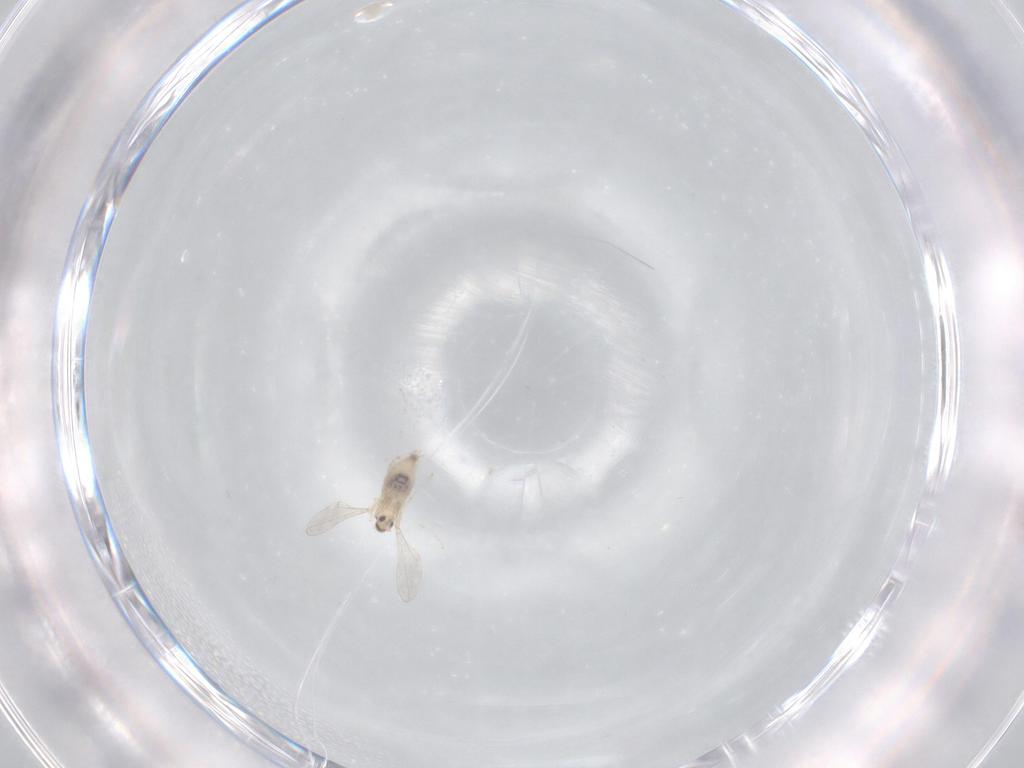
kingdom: Animalia
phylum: Arthropoda
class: Insecta
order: Diptera
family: Cecidomyiidae
